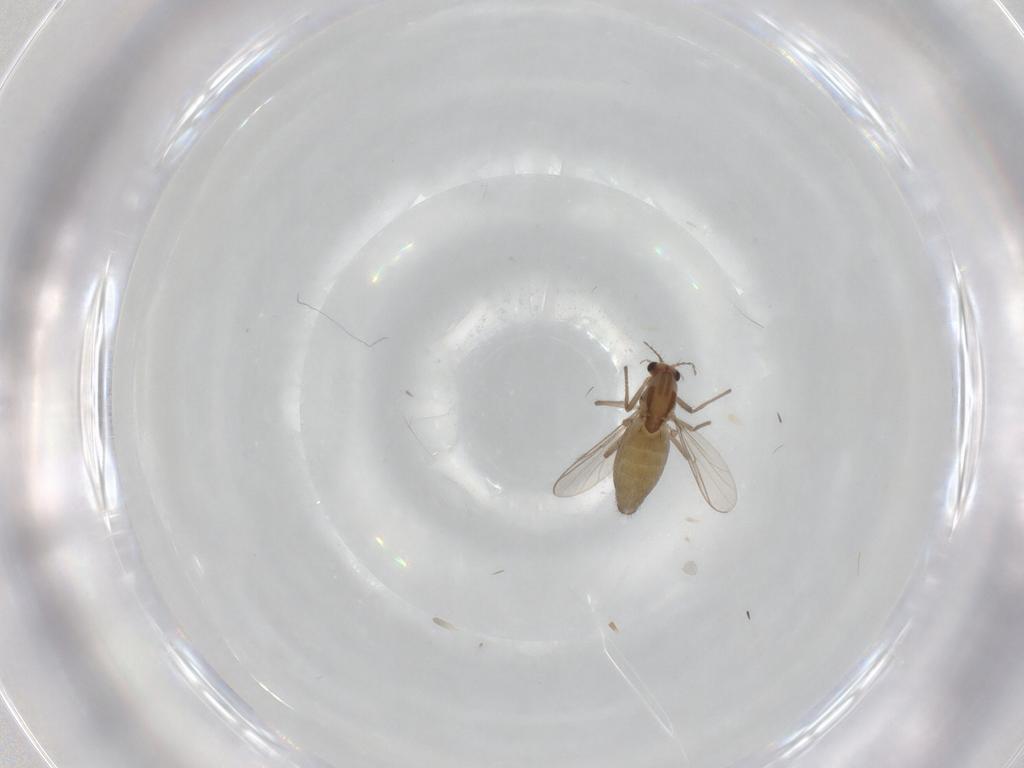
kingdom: Animalia
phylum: Arthropoda
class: Insecta
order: Diptera
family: Chironomidae
